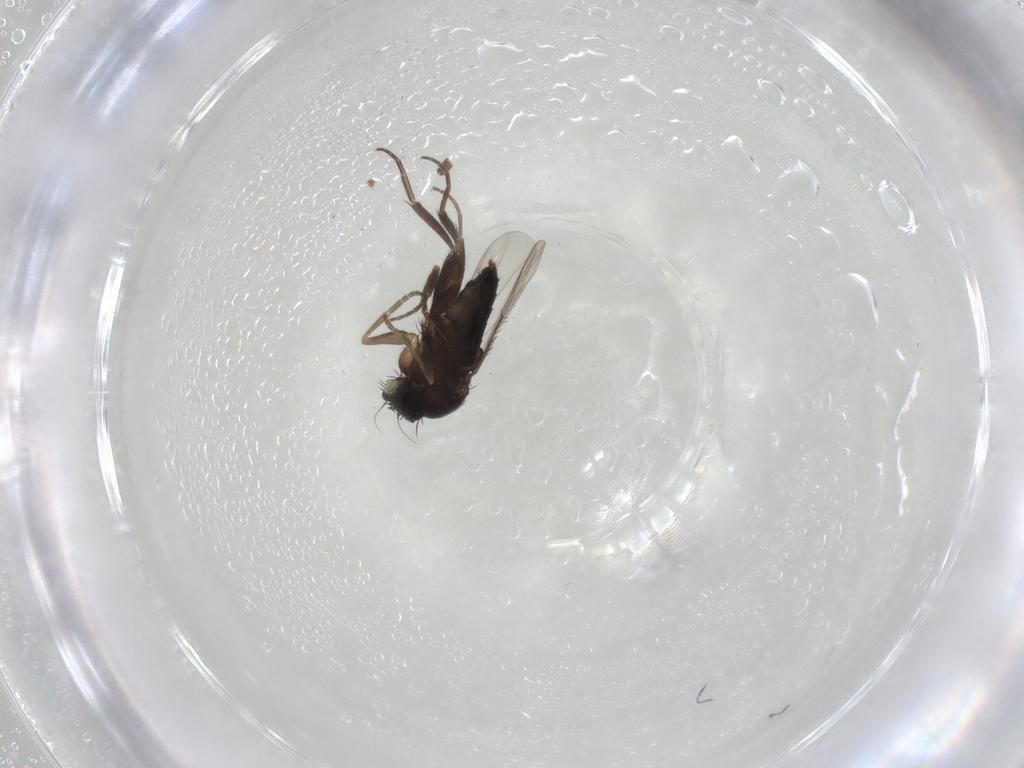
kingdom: Animalia
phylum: Arthropoda
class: Insecta
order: Diptera
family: Phoridae
